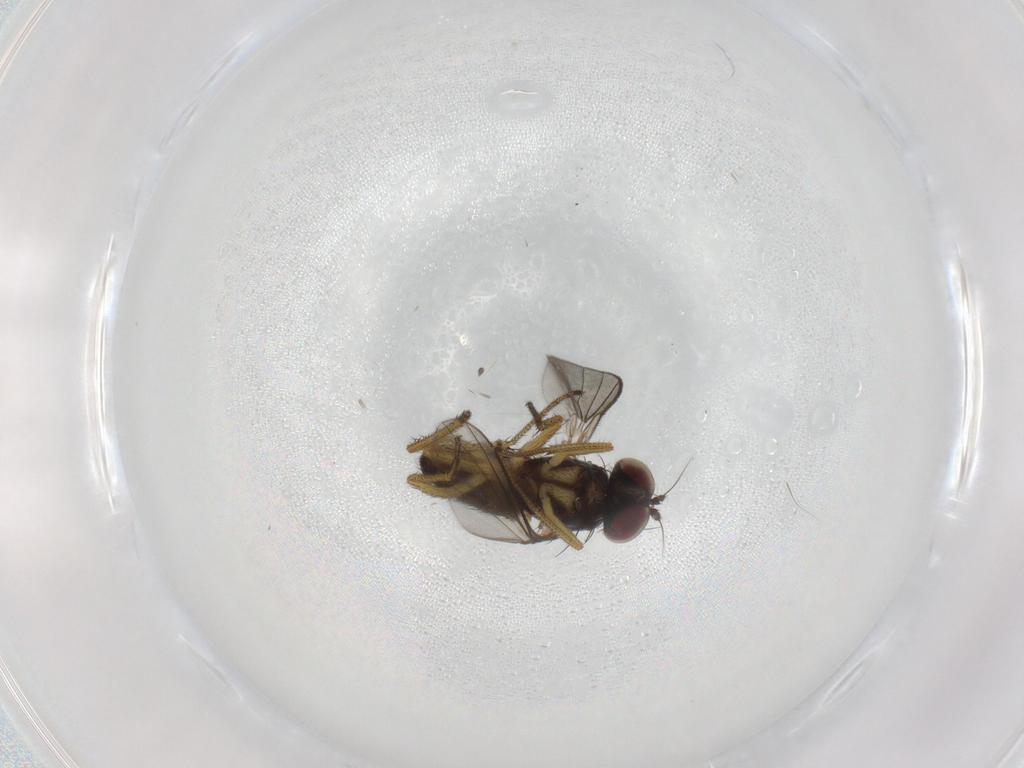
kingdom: Animalia
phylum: Arthropoda
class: Insecta
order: Diptera
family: Dolichopodidae
